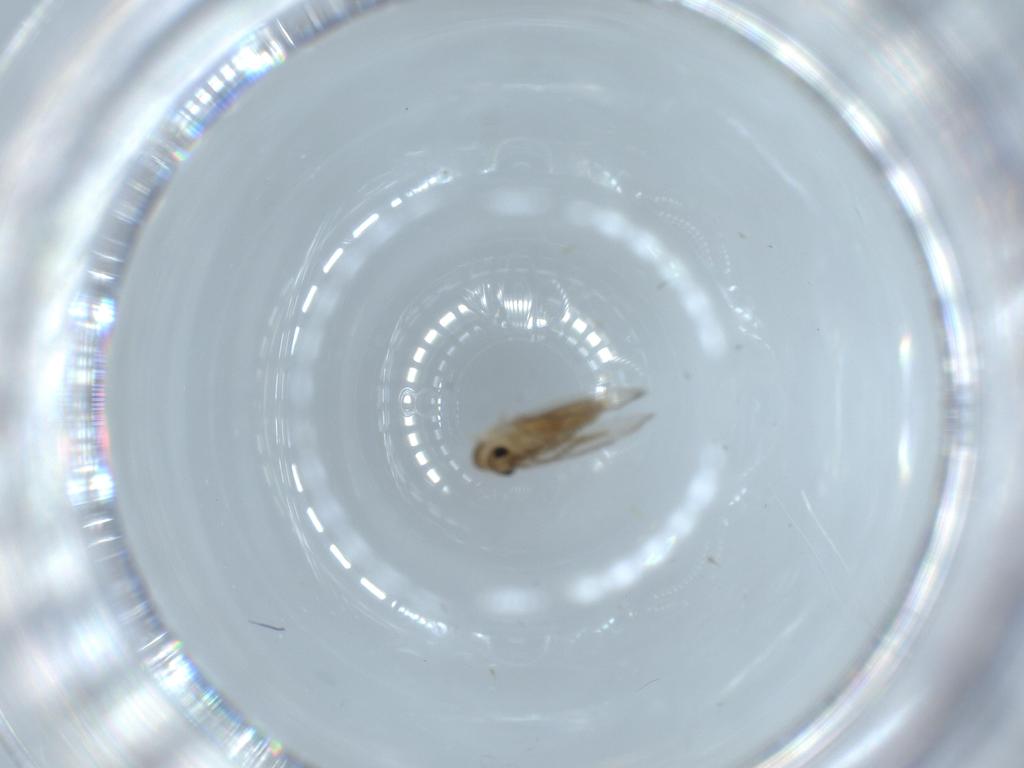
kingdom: Animalia
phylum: Arthropoda
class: Insecta
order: Diptera
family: Psychodidae
